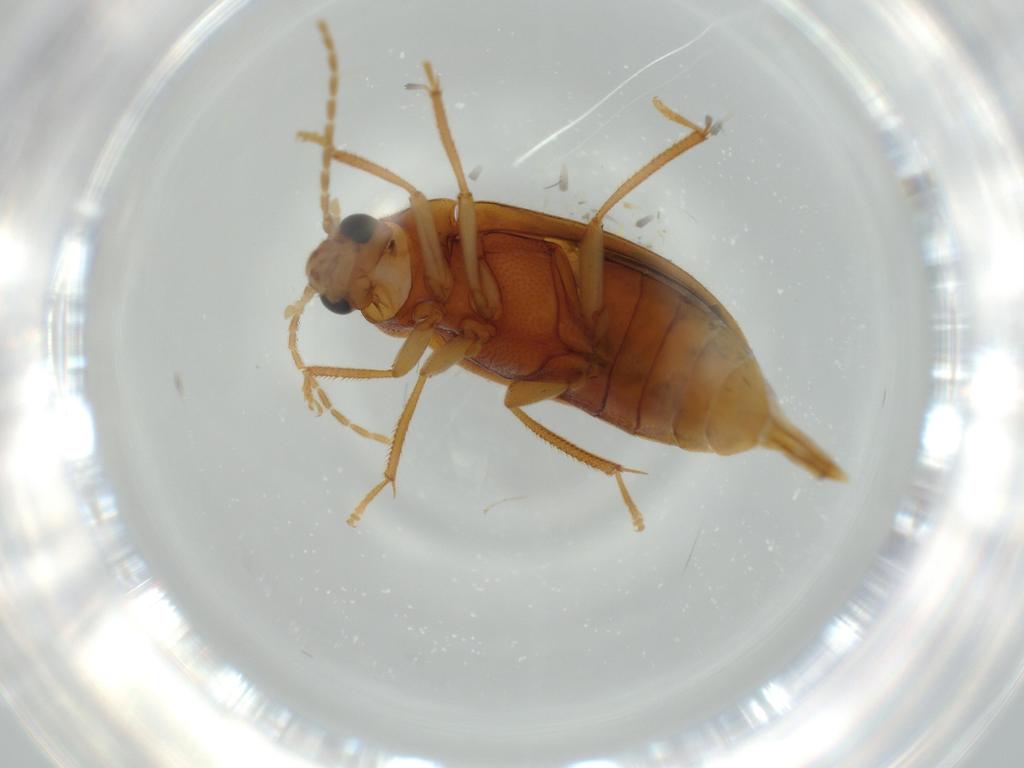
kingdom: Animalia
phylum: Arthropoda
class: Insecta
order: Coleoptera
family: Ptilodactylidae
